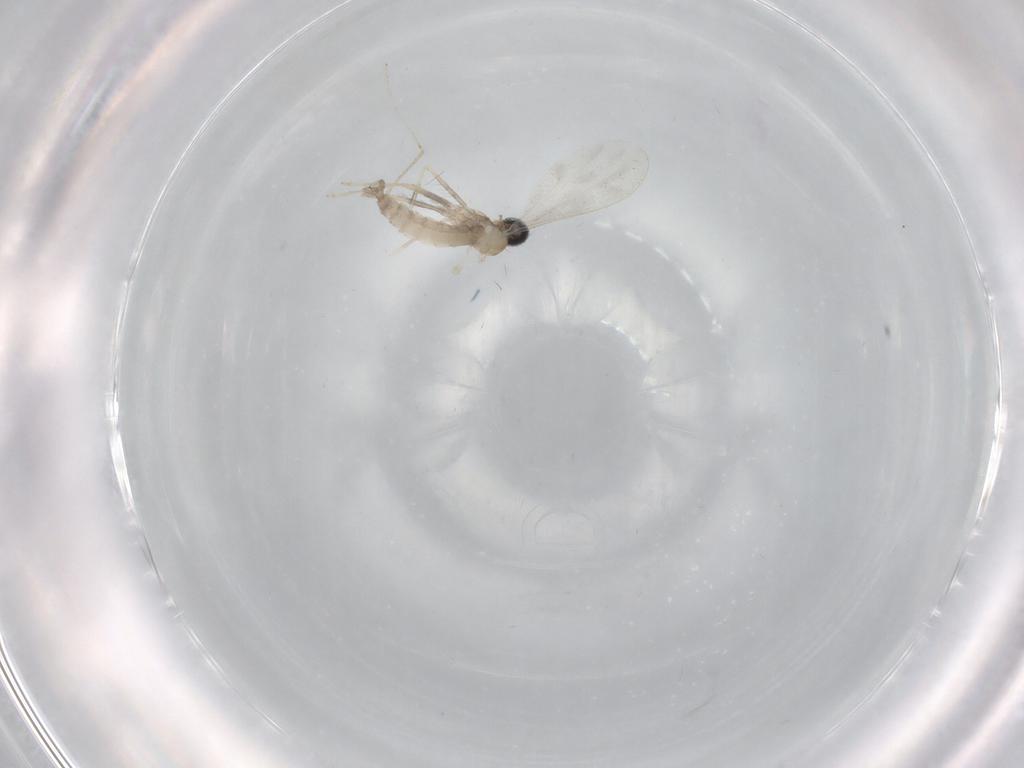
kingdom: Animalia
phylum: Arthropoda
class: Insecta
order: Diptera
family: Cecidomyiidae
